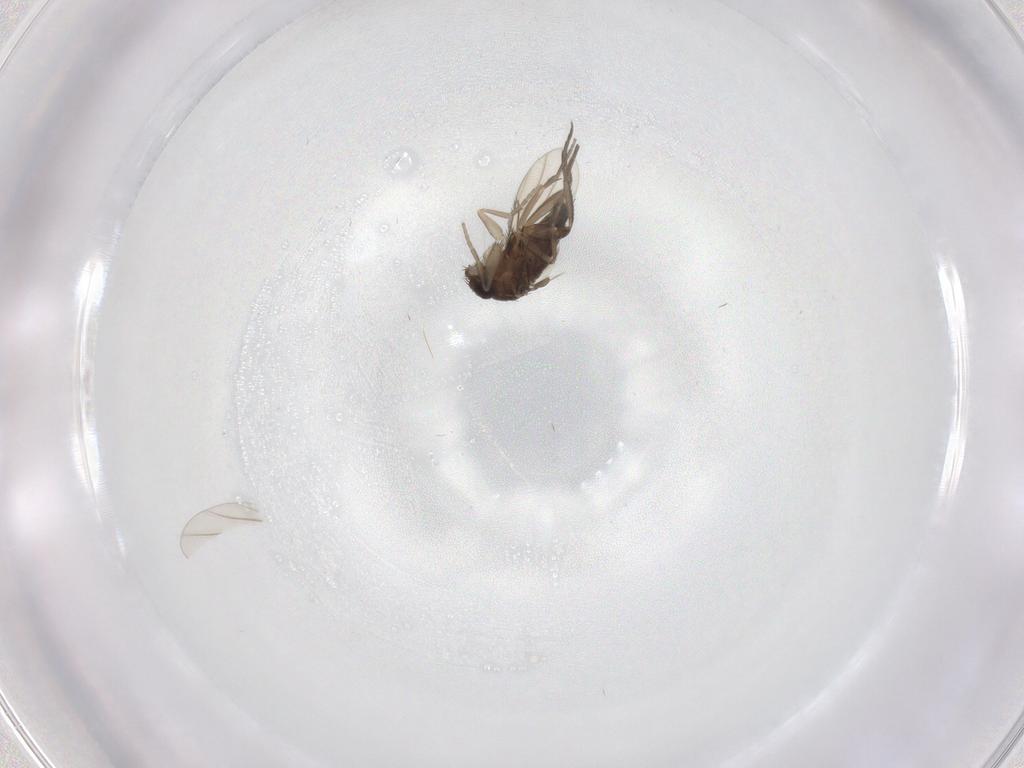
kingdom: Animalia
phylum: Arthropoda
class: Insecta
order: Diptera
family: Phoridae
